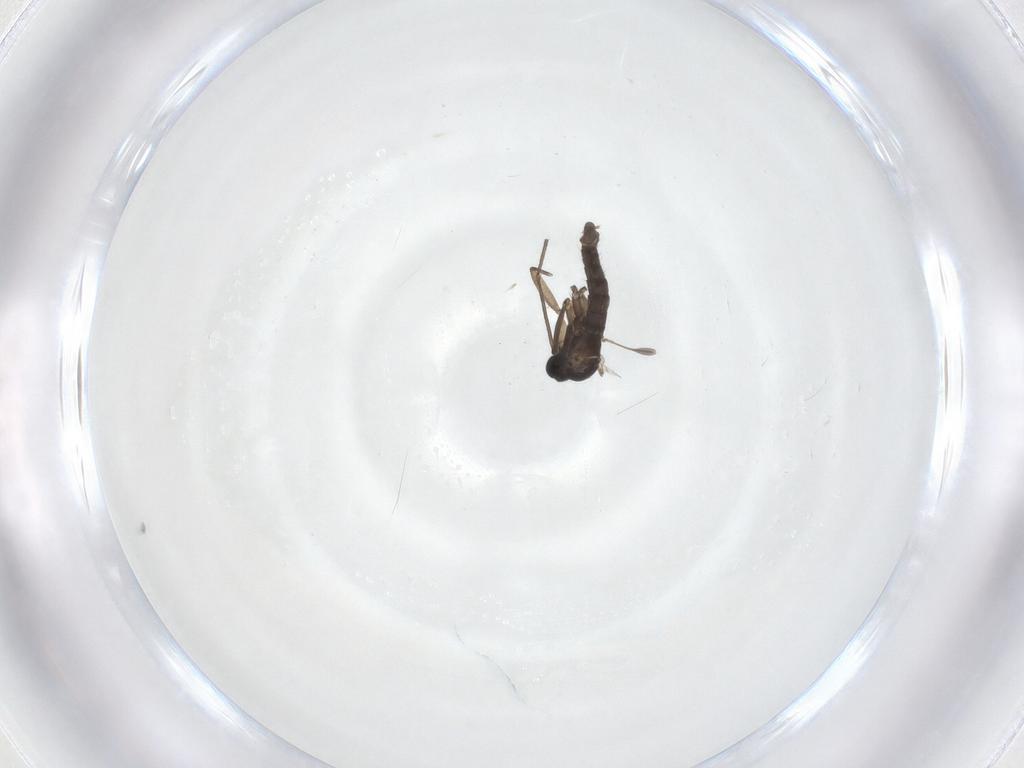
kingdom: Animalia
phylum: Arthropoda
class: Insecta
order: Diptera
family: Sciaridae
